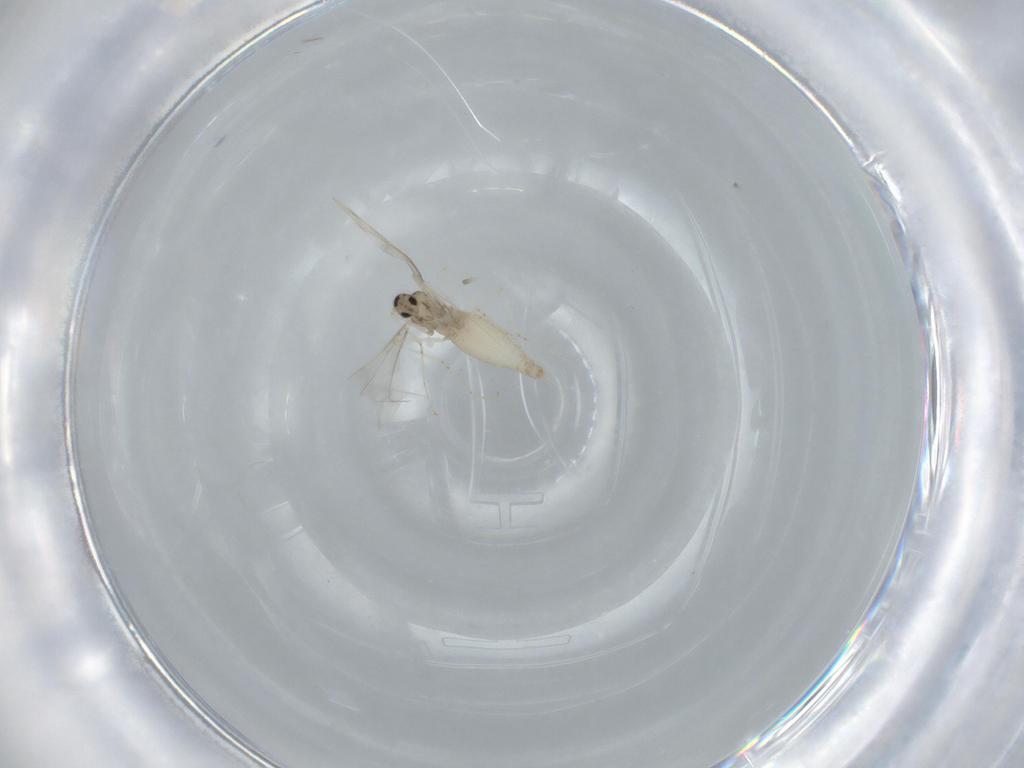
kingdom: Animalia
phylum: Arthropoda
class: Insecta
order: Diptera
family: Cecidomyiidae
